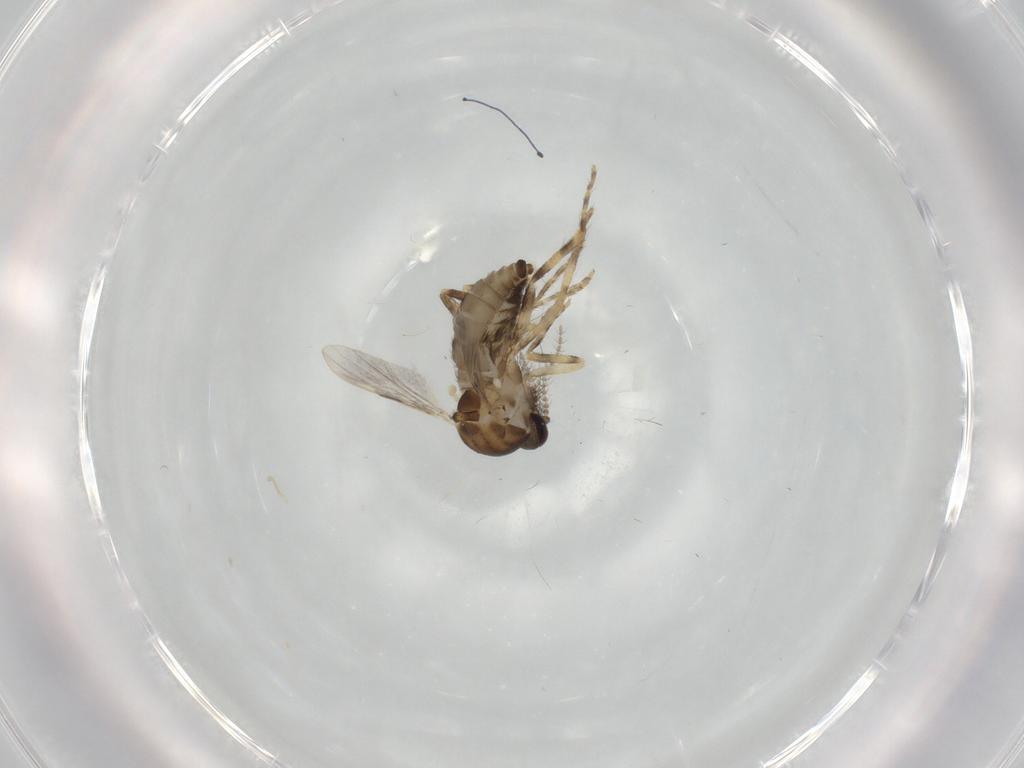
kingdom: Animalia
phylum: Arthropoda
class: Insecta
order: Diptera
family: Ceratopogonidae
